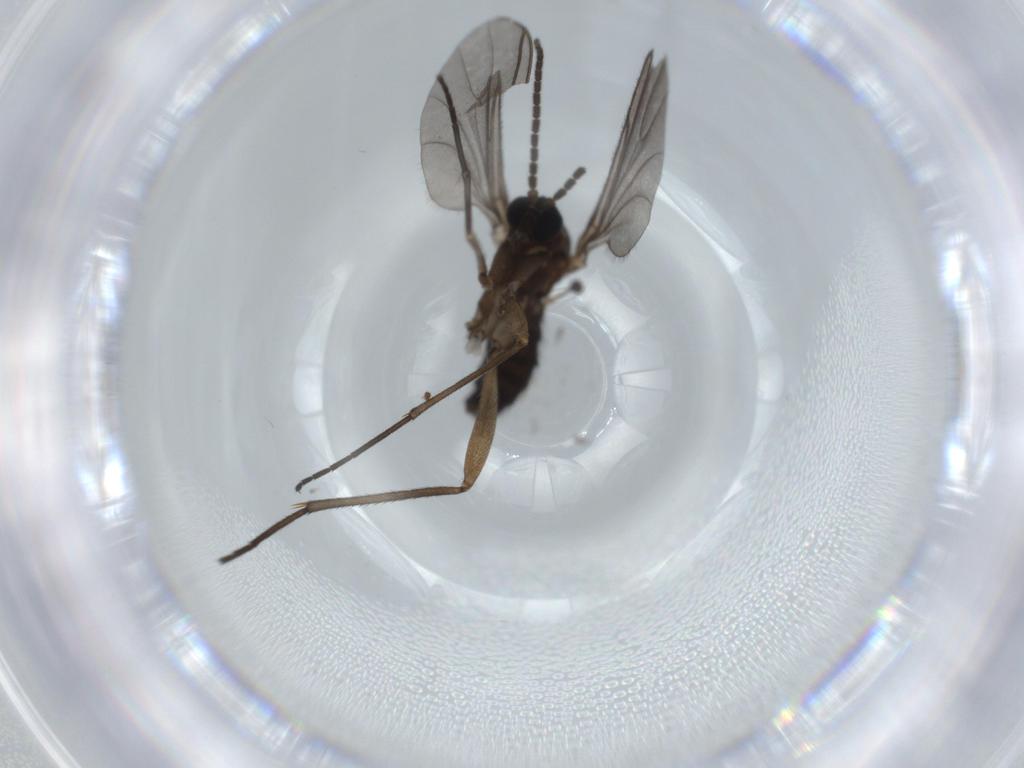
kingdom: Animalia
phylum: Arthropoda
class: Insecta
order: Diptera
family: Sciaridae
